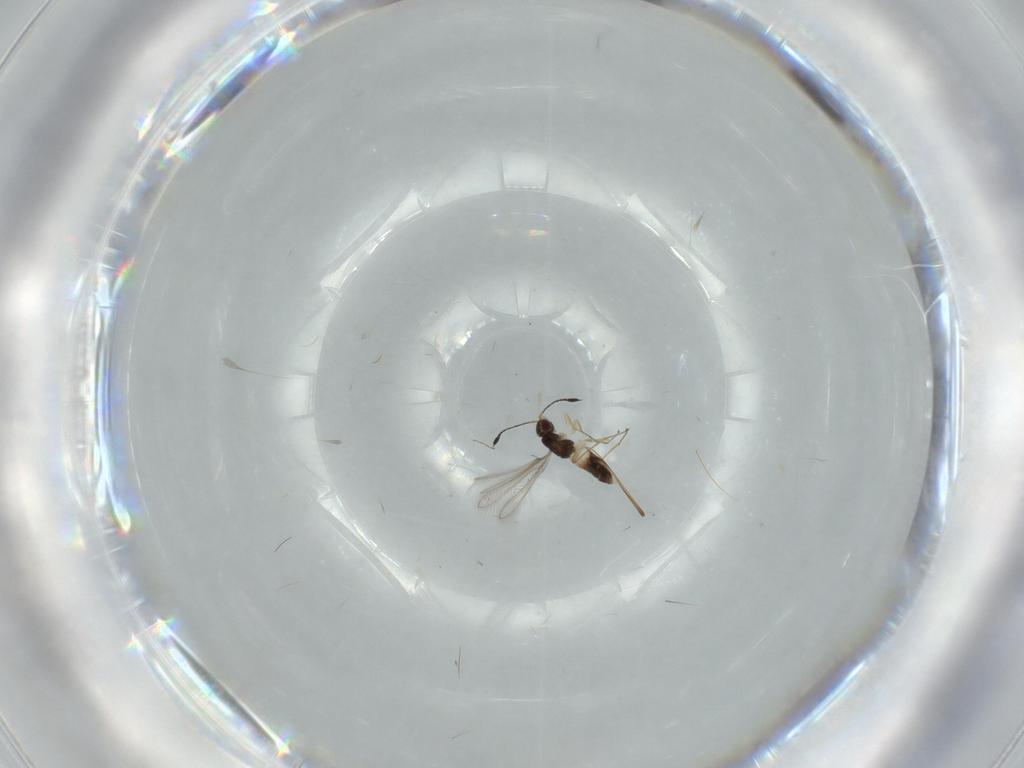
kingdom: Animalia
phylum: Arthropoda
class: Insecta
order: Hymenoptera
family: Mymaridae
